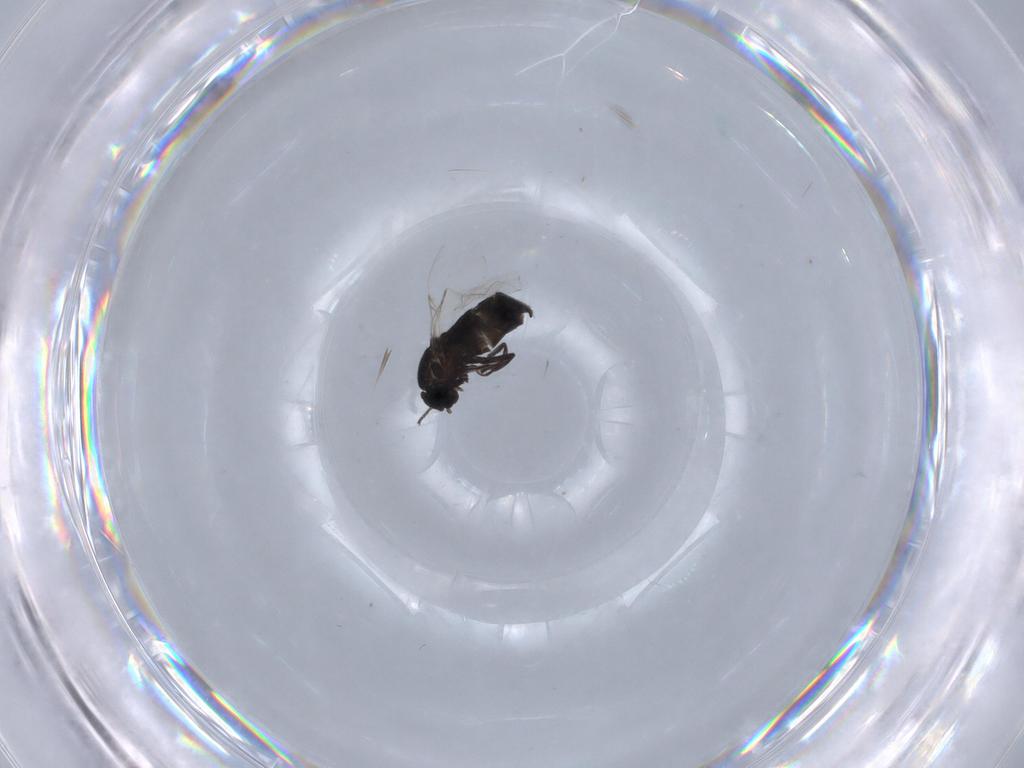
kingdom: Animalia
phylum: Arthropoda
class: Insecta
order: Diptera
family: Scatopsidae
